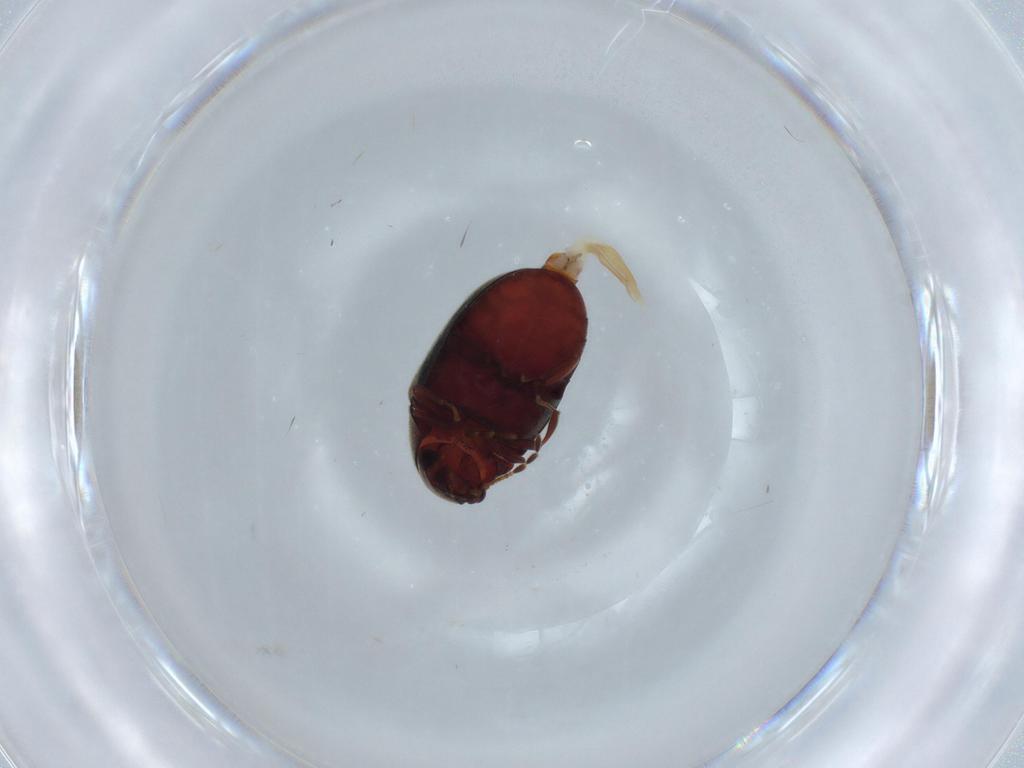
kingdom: Animalia
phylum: Arthropoda
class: Insecta
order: Coleoptera
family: Ptinidae
